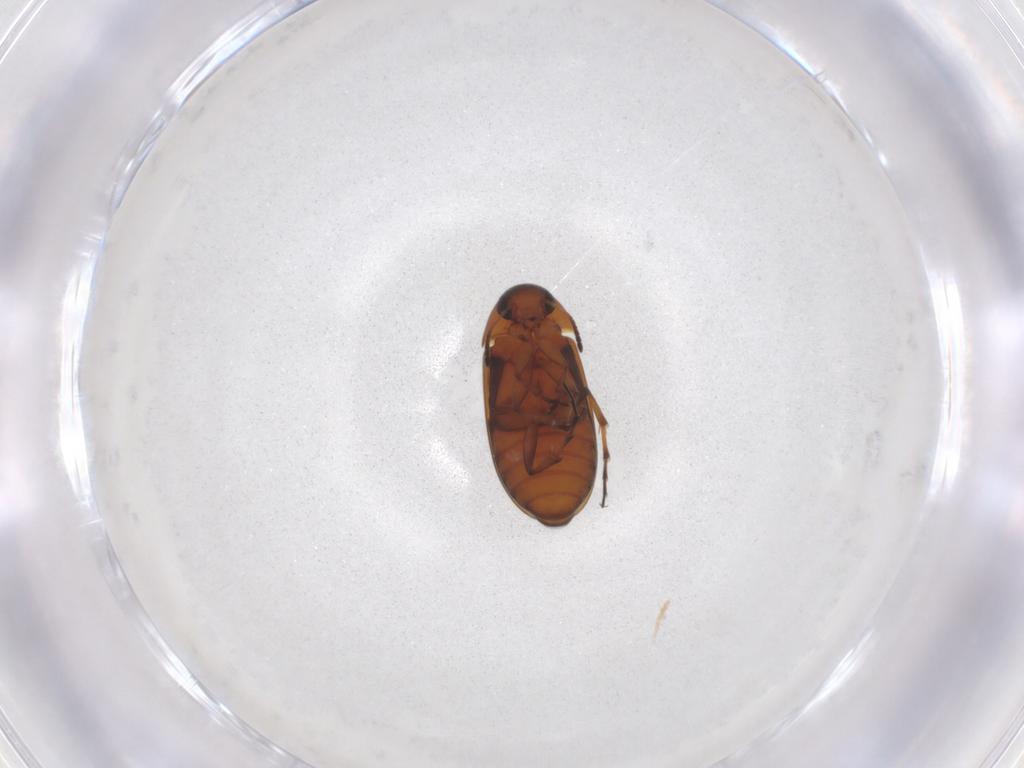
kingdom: Animalia
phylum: Arthropoda
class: Insecta
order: Coleoptera
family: Scraptiidae
